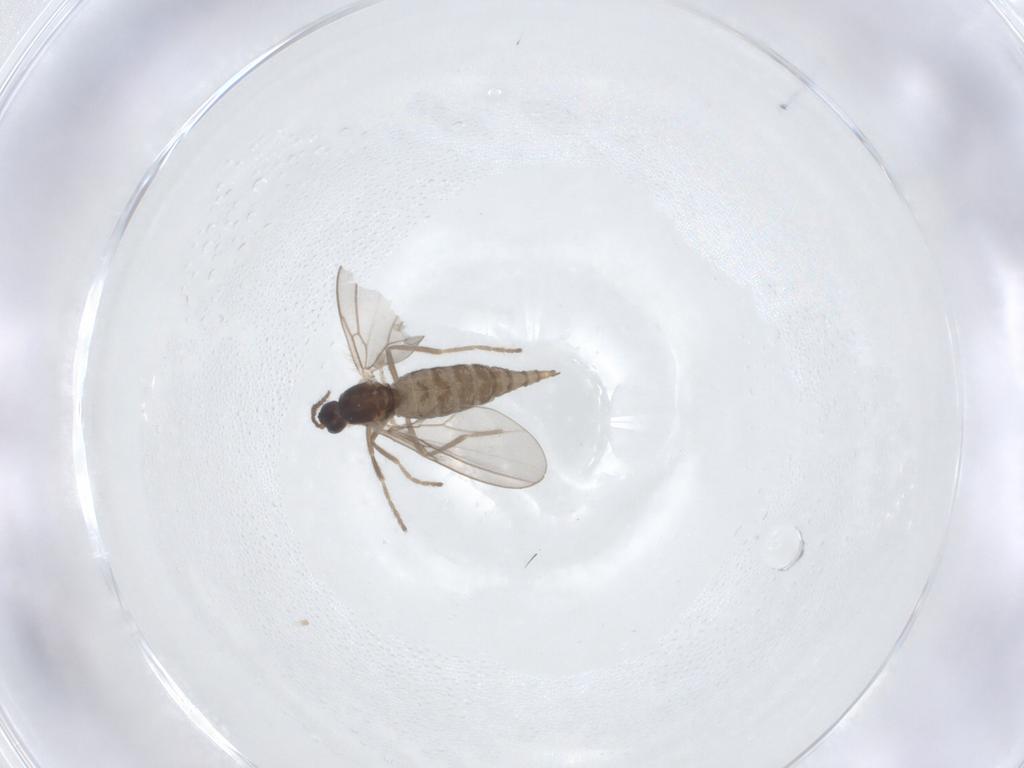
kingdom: Animalia
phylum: Arthropoda
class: Insecta
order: Diptera
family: Cecidomyiidae
